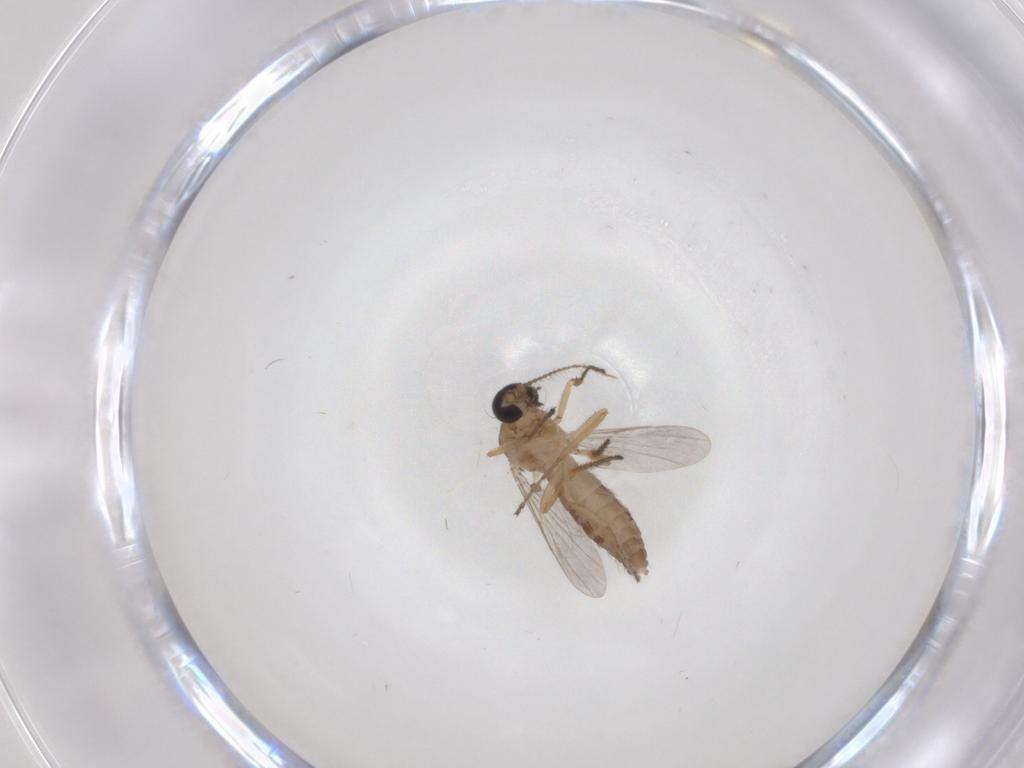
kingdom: Animalia
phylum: Arthropoda
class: Insecta
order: Diptera
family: Ceratopogonidae
